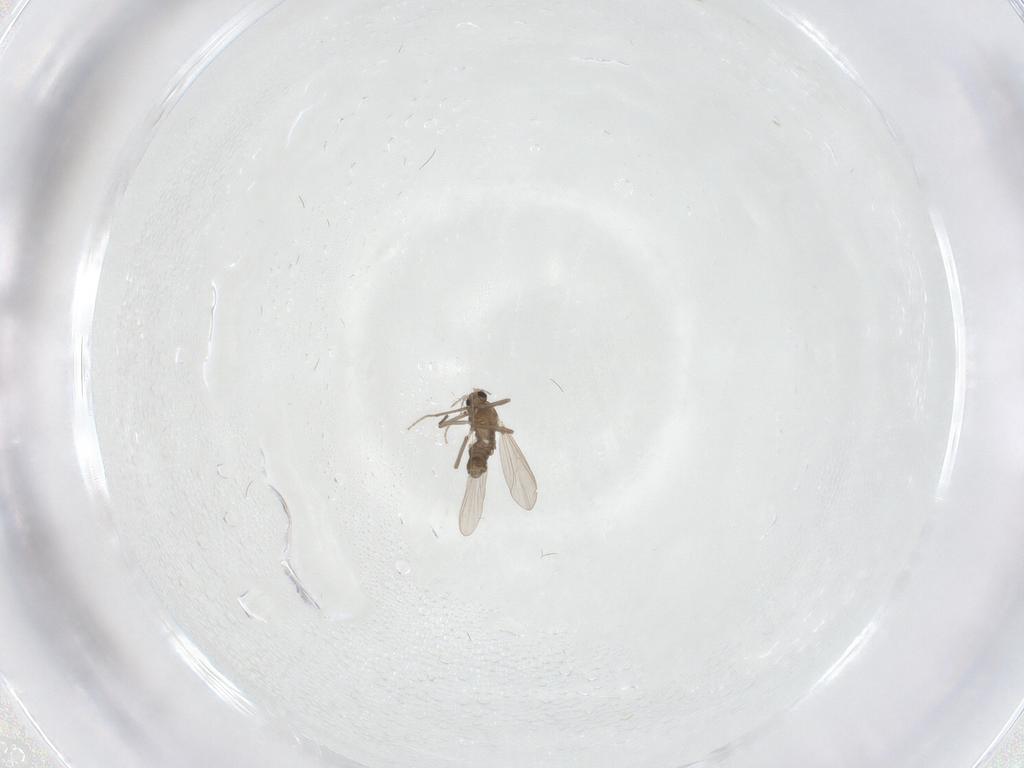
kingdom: Animalia
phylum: Arthropoda
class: Insecta
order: Diptera
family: Chironomidae
